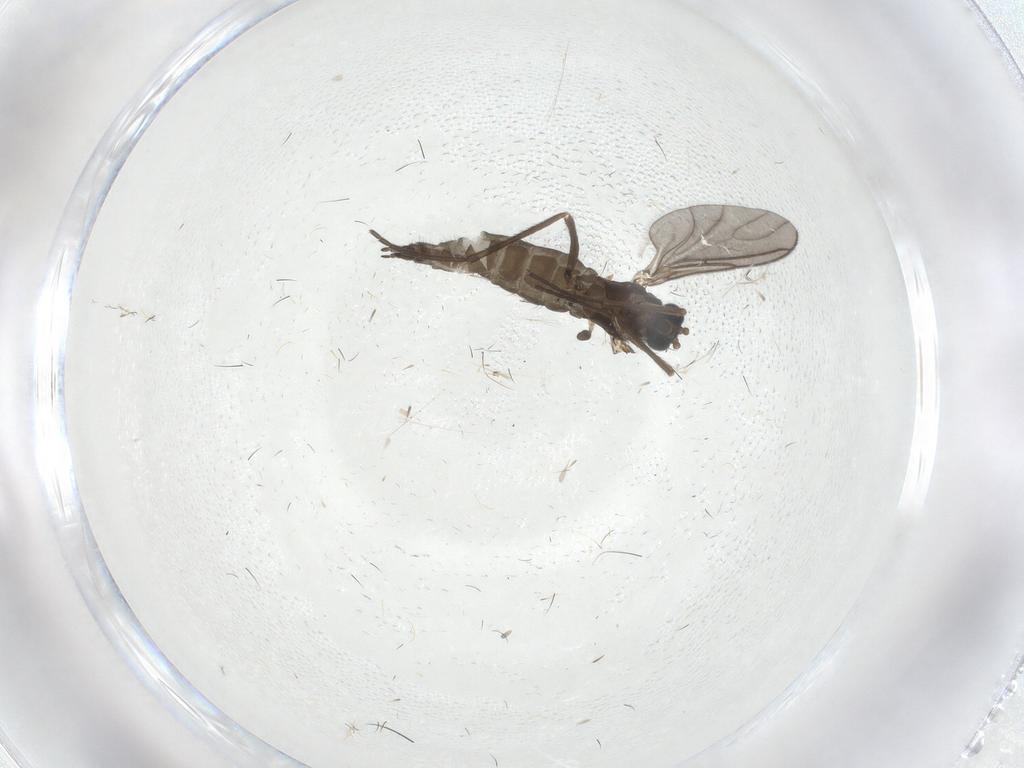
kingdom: Animalia
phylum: Arthropoda
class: Insecta
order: Diptera
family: Sciaridae
